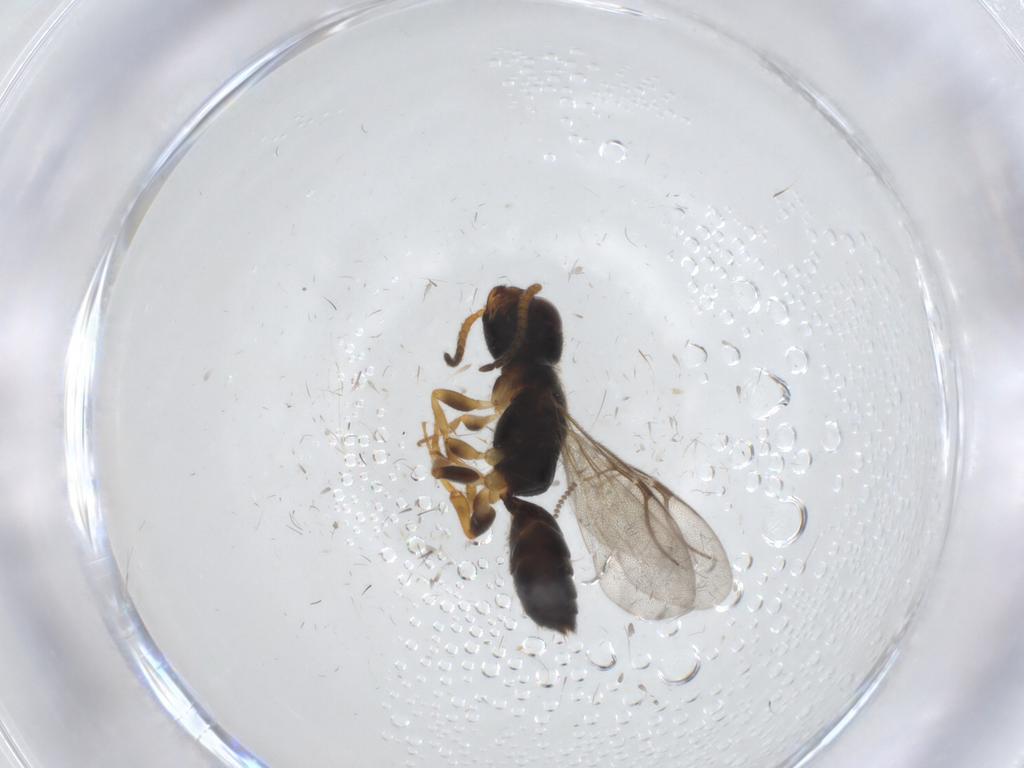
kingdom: Animalia
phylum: Arthropoda
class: Insecta
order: Hymenoptera
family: Bethylidae
